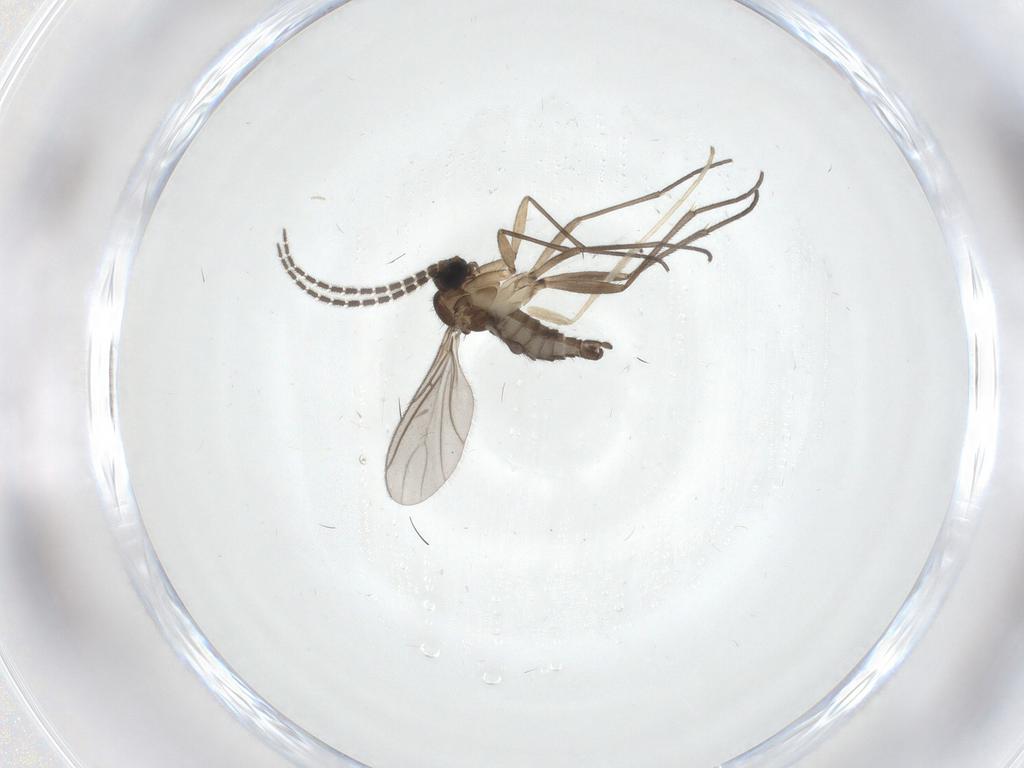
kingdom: Animalia
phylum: Arthropoda
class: Insecta
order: Diptera
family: Sciaridae
